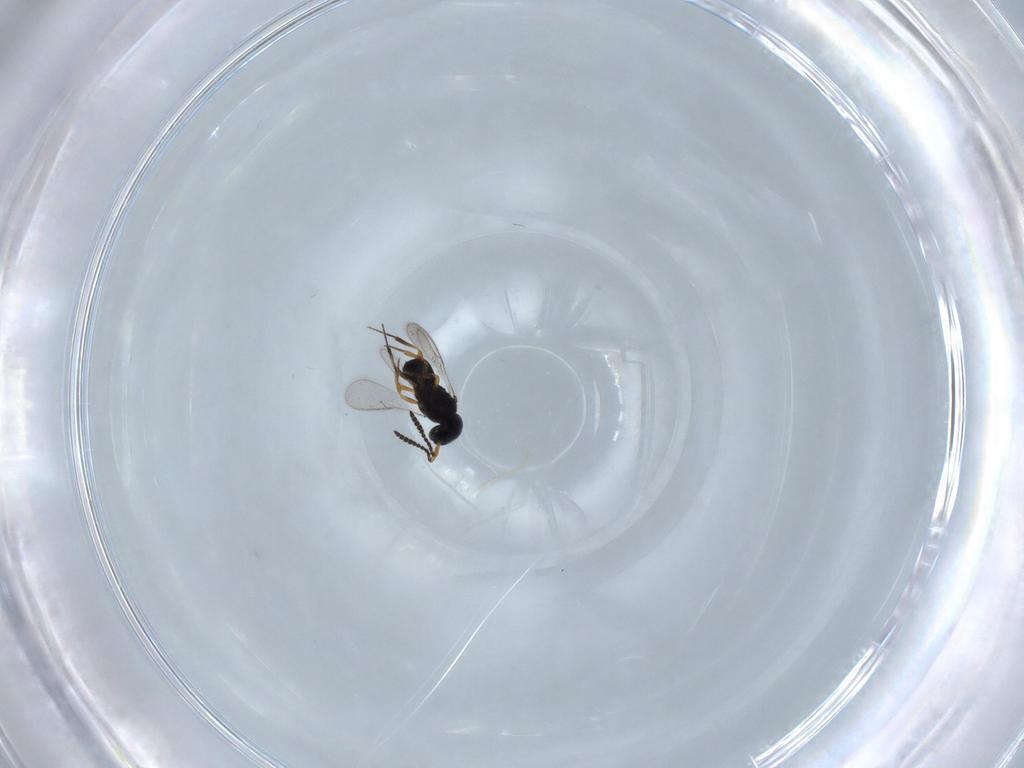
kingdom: Animalia
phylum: Arthropoda
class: Insecta
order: Hymenoptera
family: Scelionidae
